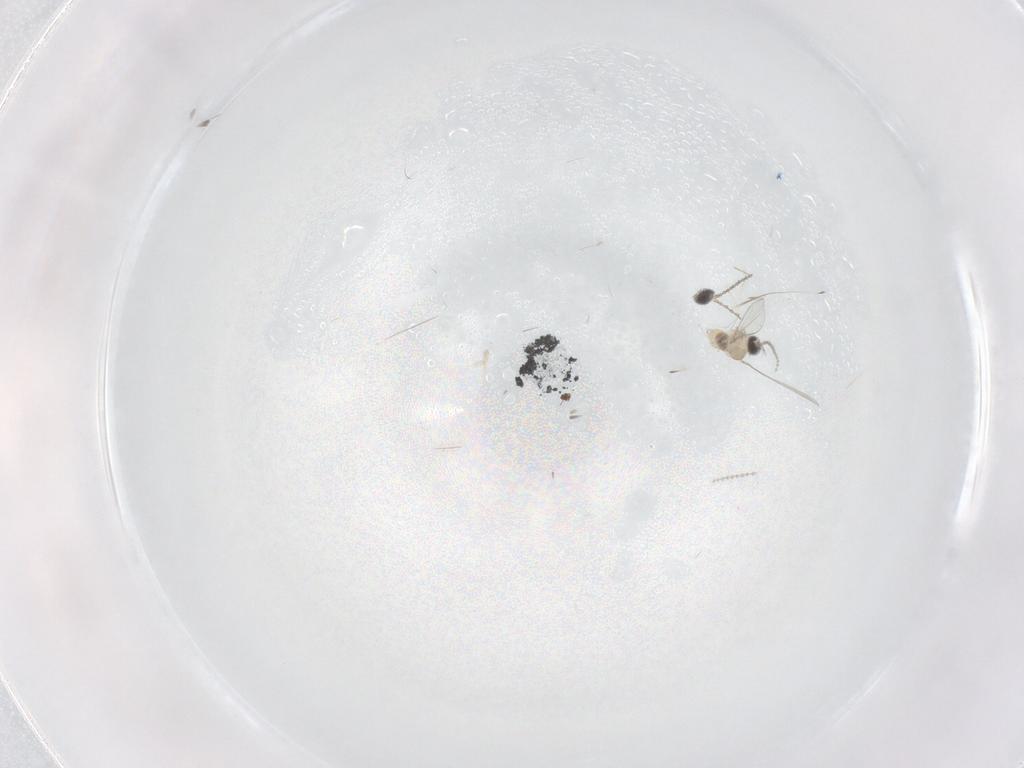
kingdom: Animalia
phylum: Arthropoda
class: Insecta
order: Diptera
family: Cecidomyiidae
